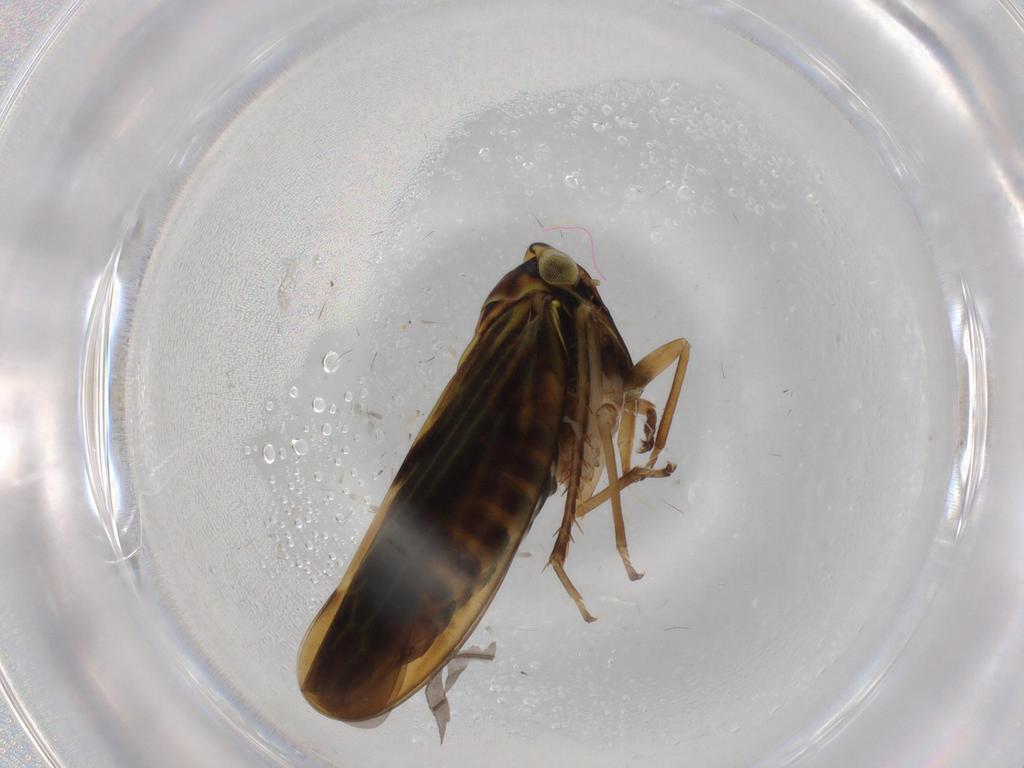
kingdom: Animalia
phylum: Arthropoda
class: Insecta
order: Hemiptera
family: Cicadellidae
